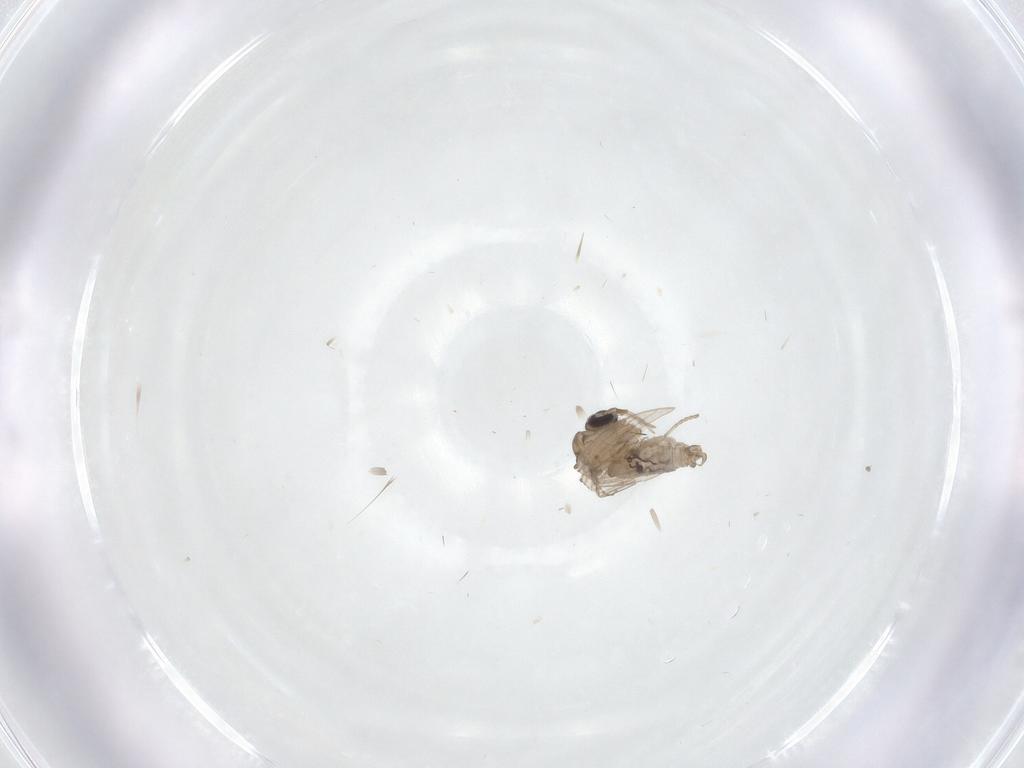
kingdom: Animalia
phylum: Arthropoda
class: Insecta
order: Diptera
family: Psychodidae
